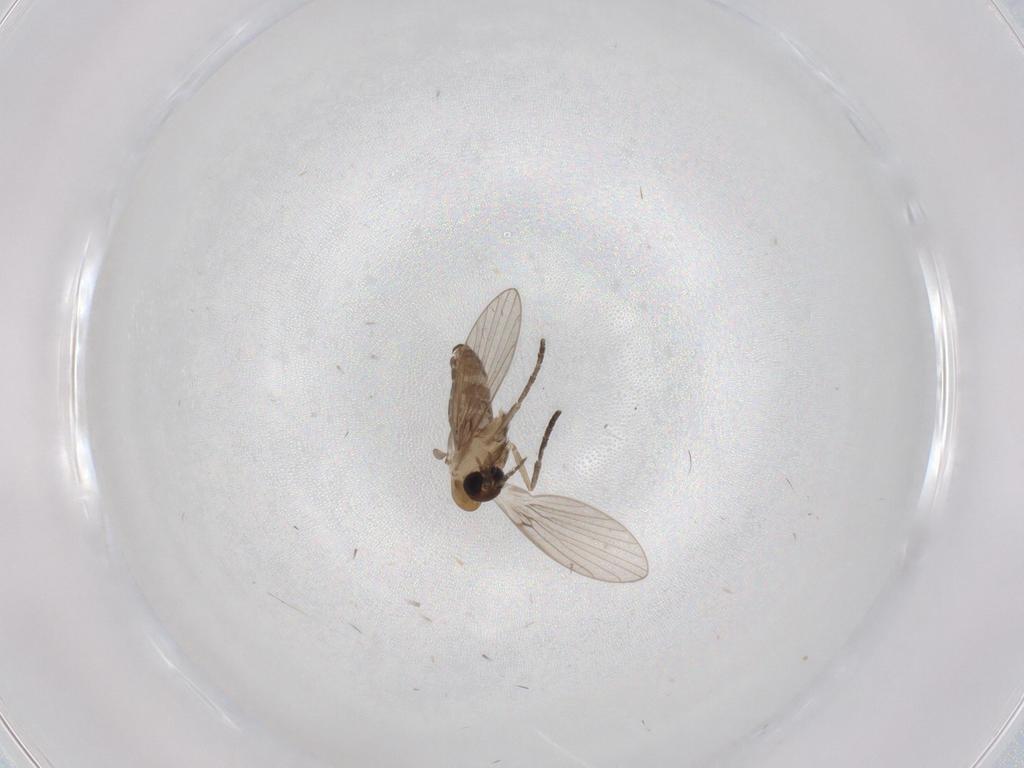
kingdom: Animalia
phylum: Arthropoda
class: Insecta
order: Diptera
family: Psychodidae
